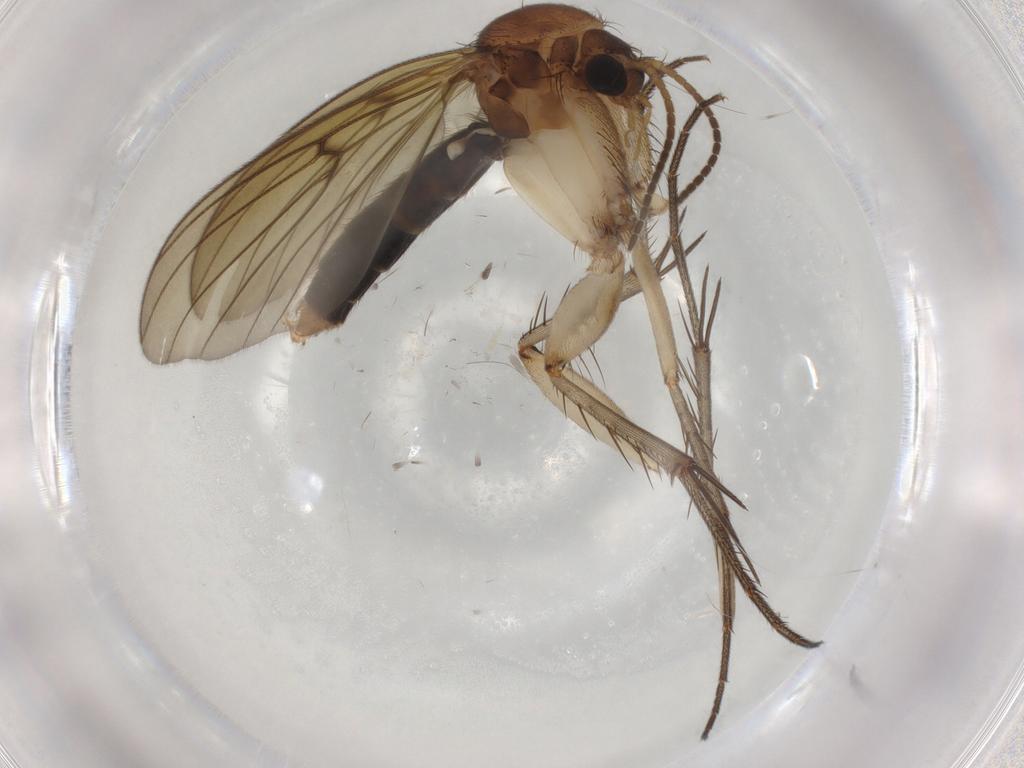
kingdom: Animalia
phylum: Arthropoda
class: Insecta
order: Diptera
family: Mycetophilidae
